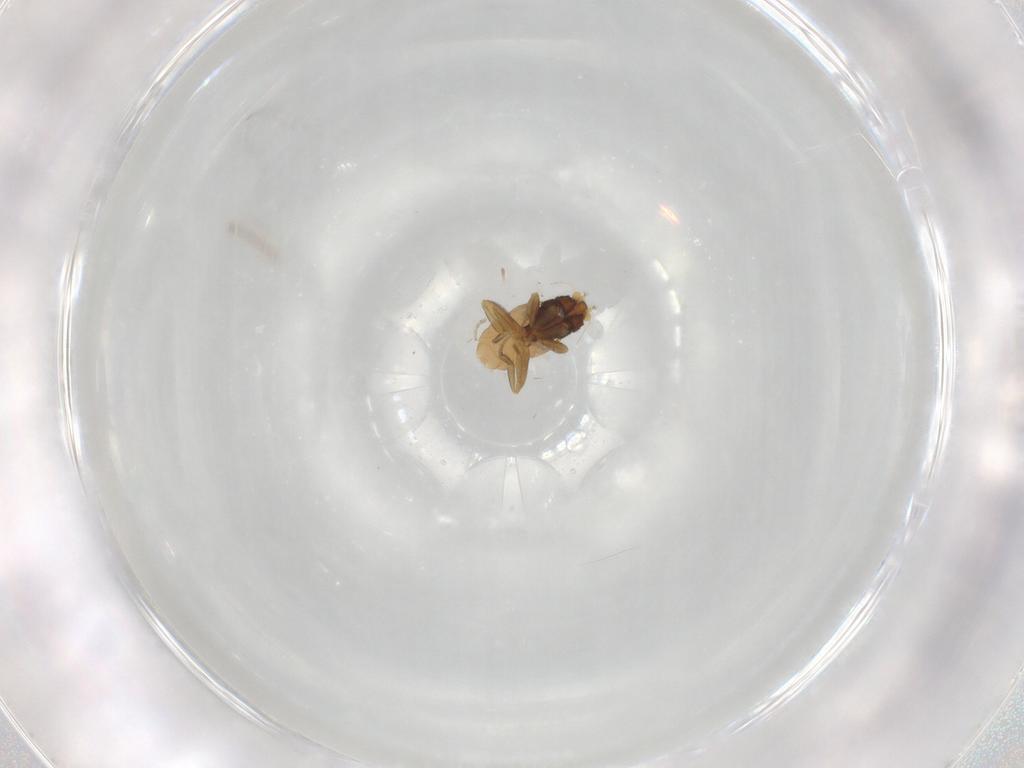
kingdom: Animalia
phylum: Arthropoda
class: Insecta
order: Diptera
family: Phoridae
